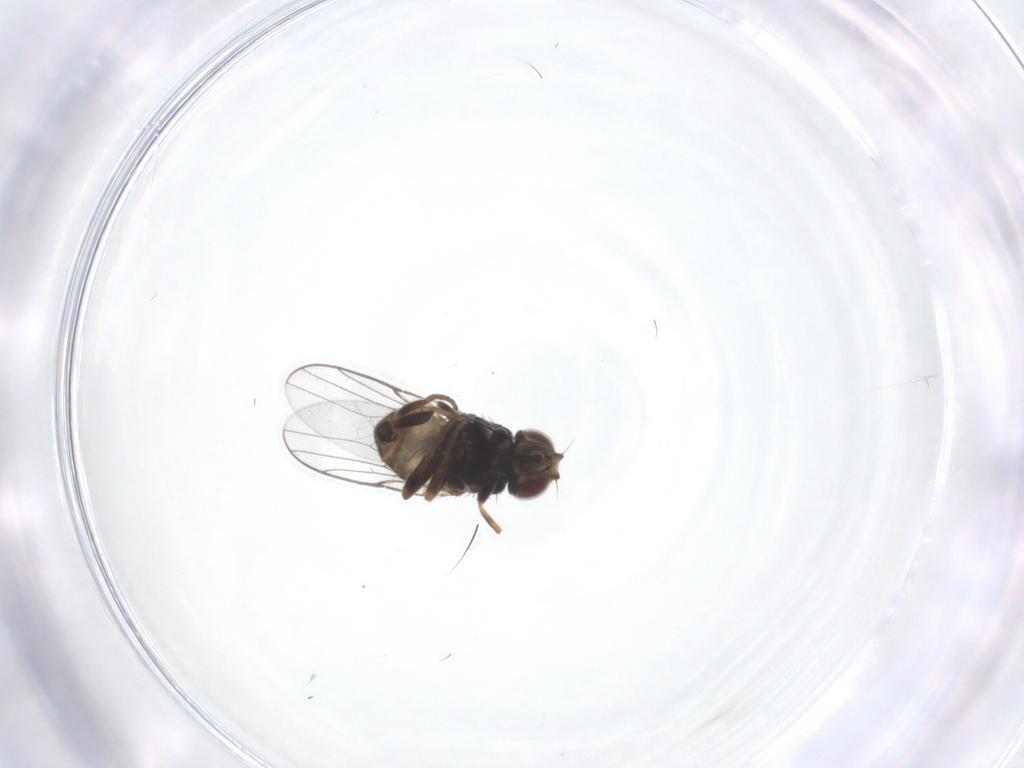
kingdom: Animalia
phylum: Arthropoda
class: Insecta
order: Diptera
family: Chloropidae
